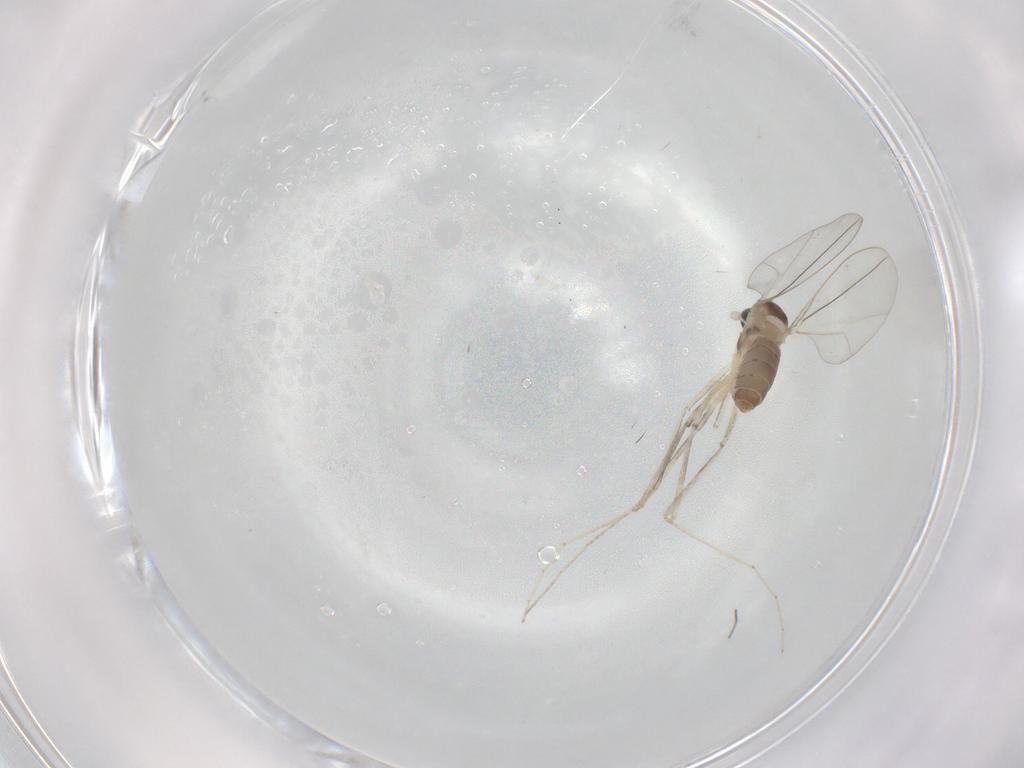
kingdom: Animalia
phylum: Arthropoda
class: Insecta
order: Diptera
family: Cecidomyiidae
